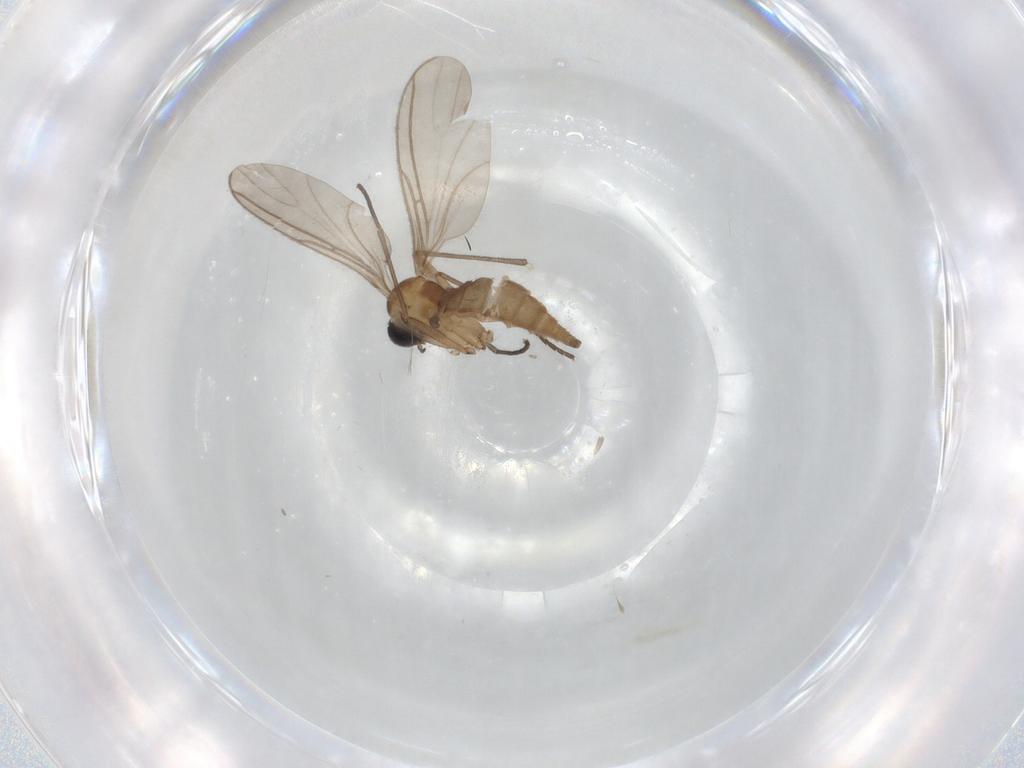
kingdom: Animalia
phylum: Arthropoda
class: Insecta
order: Diptera
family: Sciaridae
